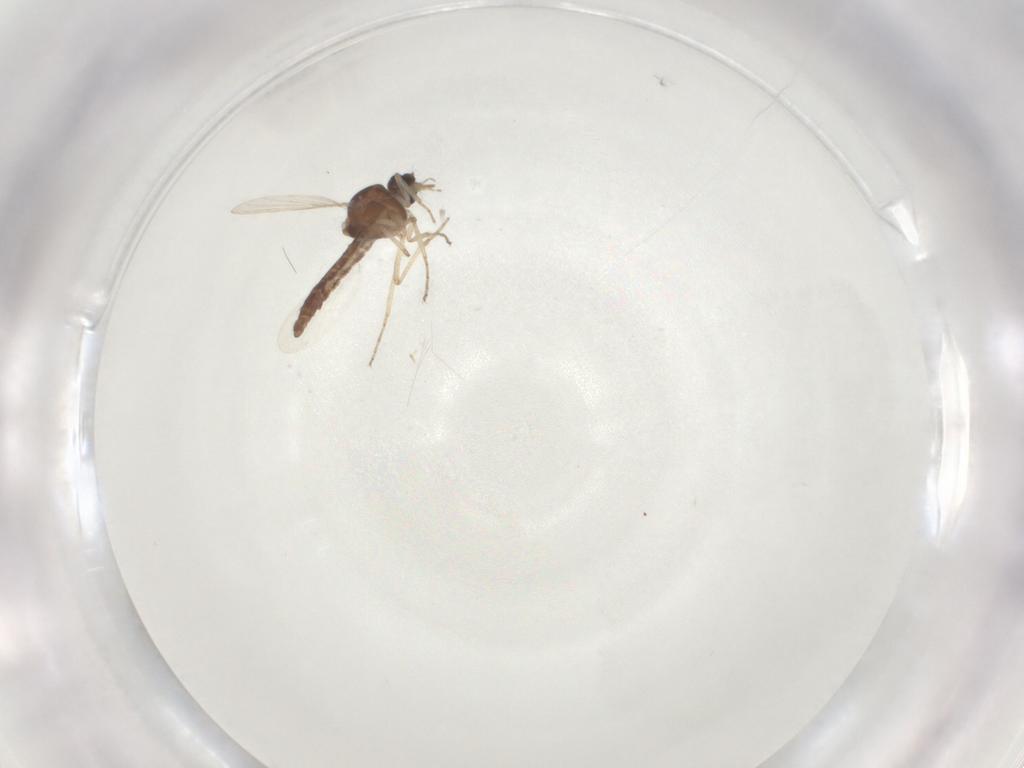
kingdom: Animalia
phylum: Arthropoda
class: Insecta
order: Diptera
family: Ceratopogonidae
